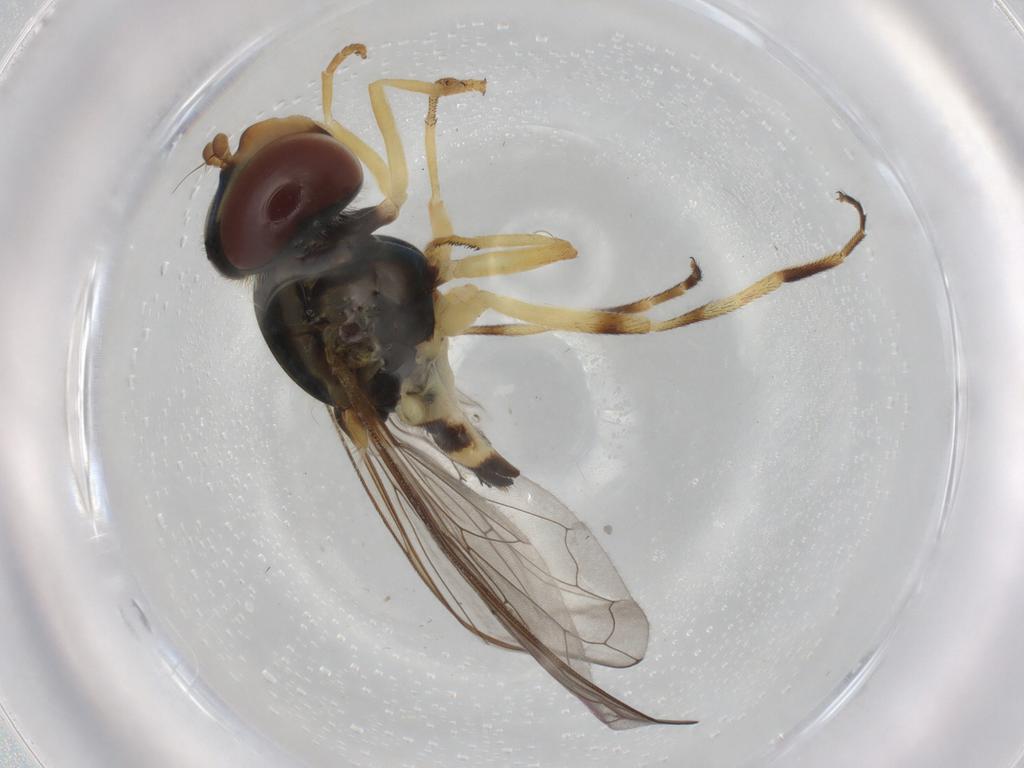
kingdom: Animalia
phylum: Arthropoda
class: Insecta
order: Diptera
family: Syrphidae
